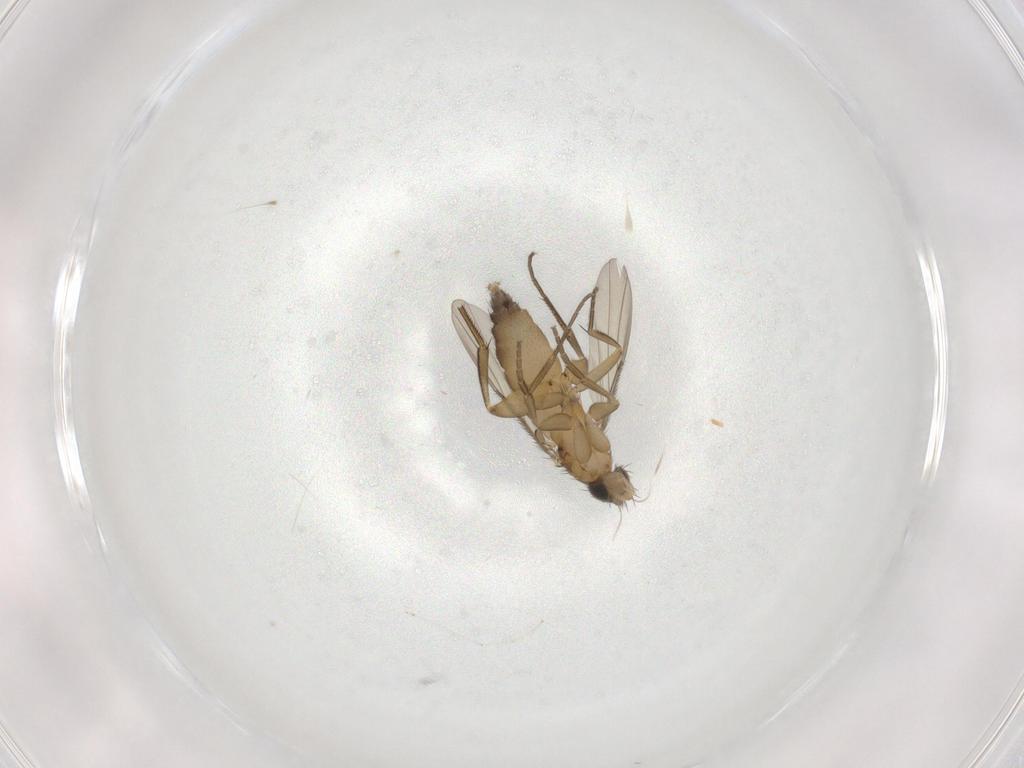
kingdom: Animalia
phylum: Arthropoda
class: Insecta
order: Diptera
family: Phoridae
